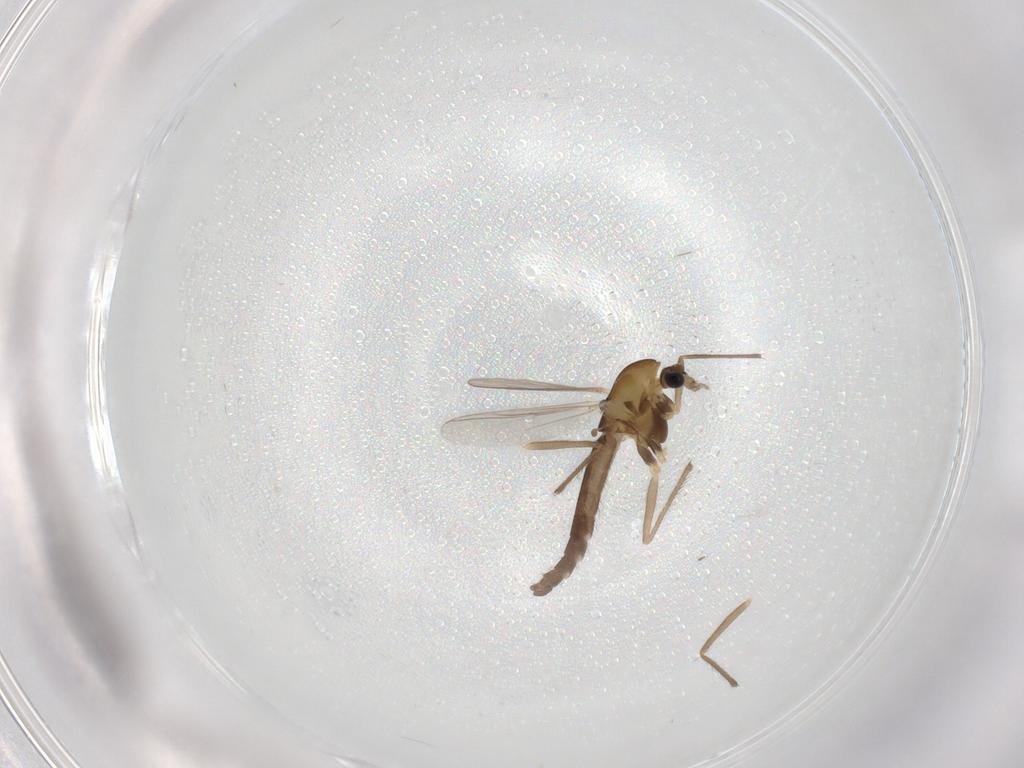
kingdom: Animalia
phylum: Arthropoda
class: Insecta
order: Diptera
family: Chironomidae
